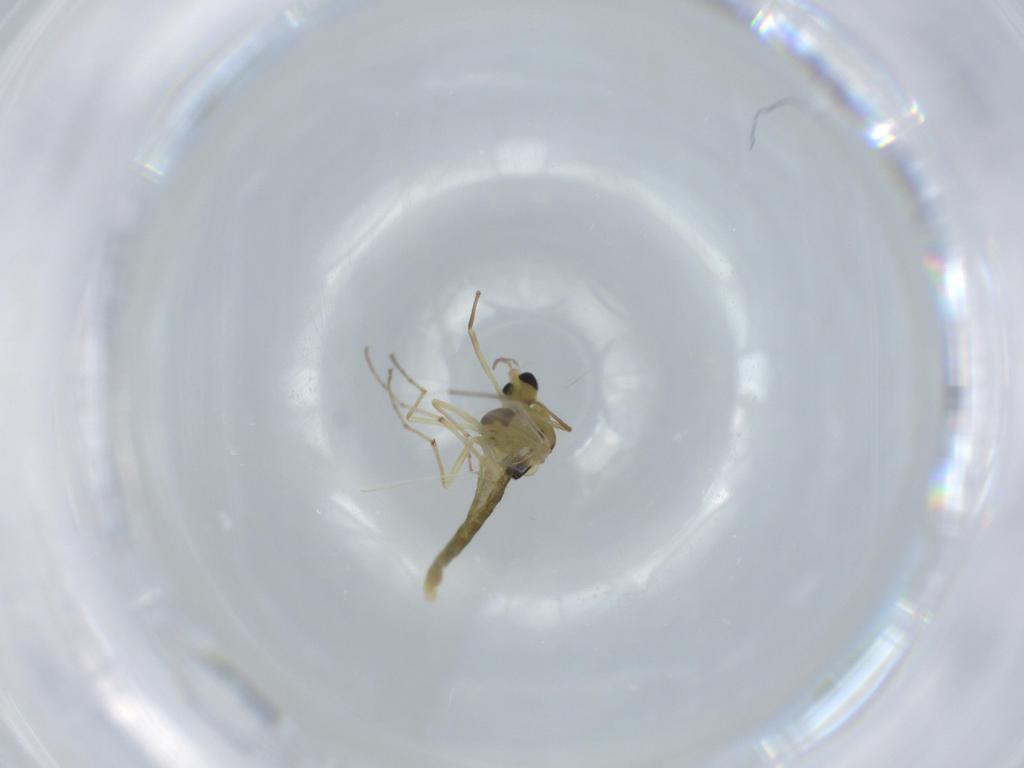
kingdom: Animalia
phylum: Arthropoda
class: Insecta
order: Diptera
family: Chironomidae
